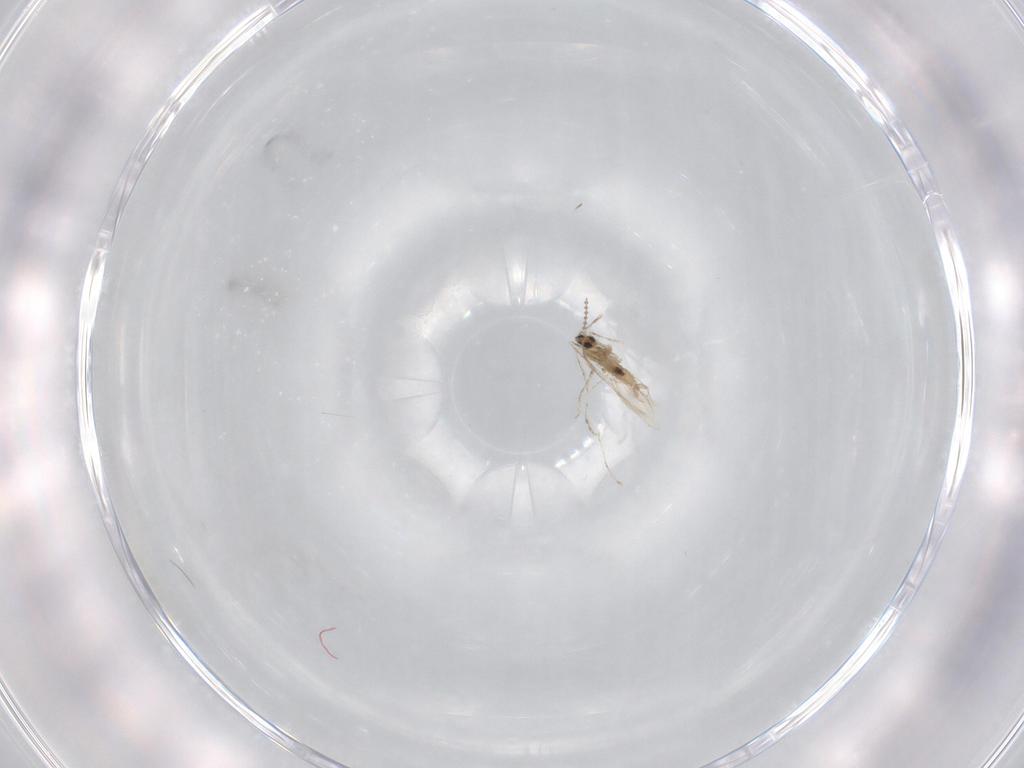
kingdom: Animalia
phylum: Arthropoda
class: Insecta
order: Diptera
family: Cecidomyiidae
